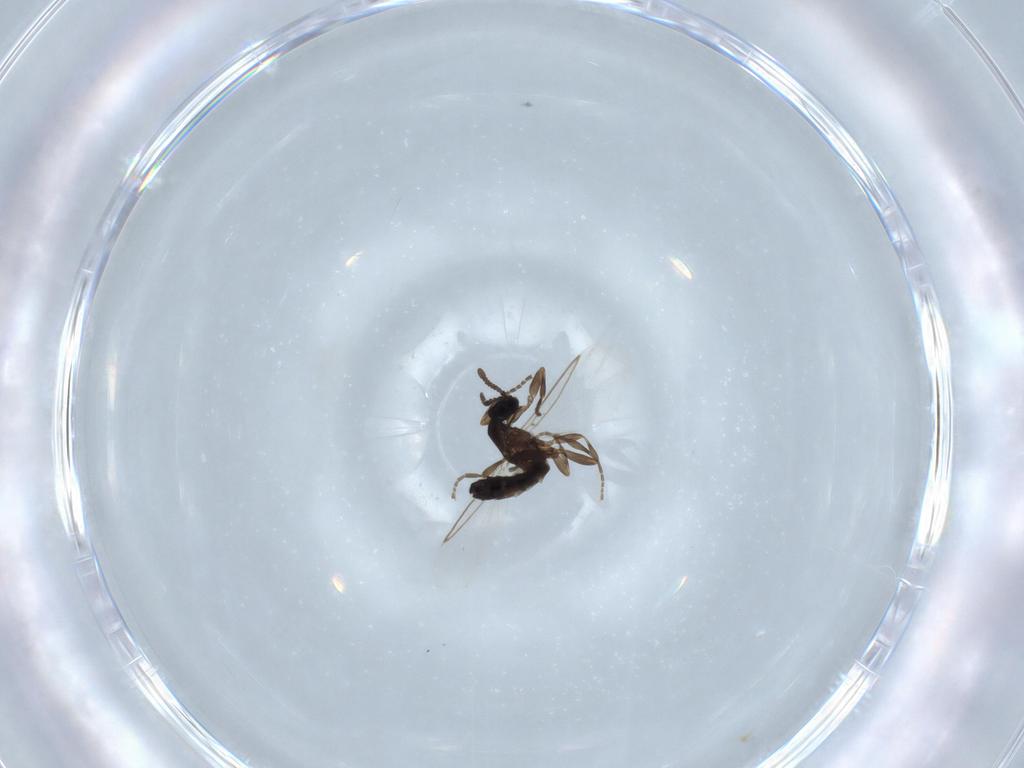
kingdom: Animalia
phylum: Arthropoda
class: Insecta
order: Diptera
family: Scatopsidae
